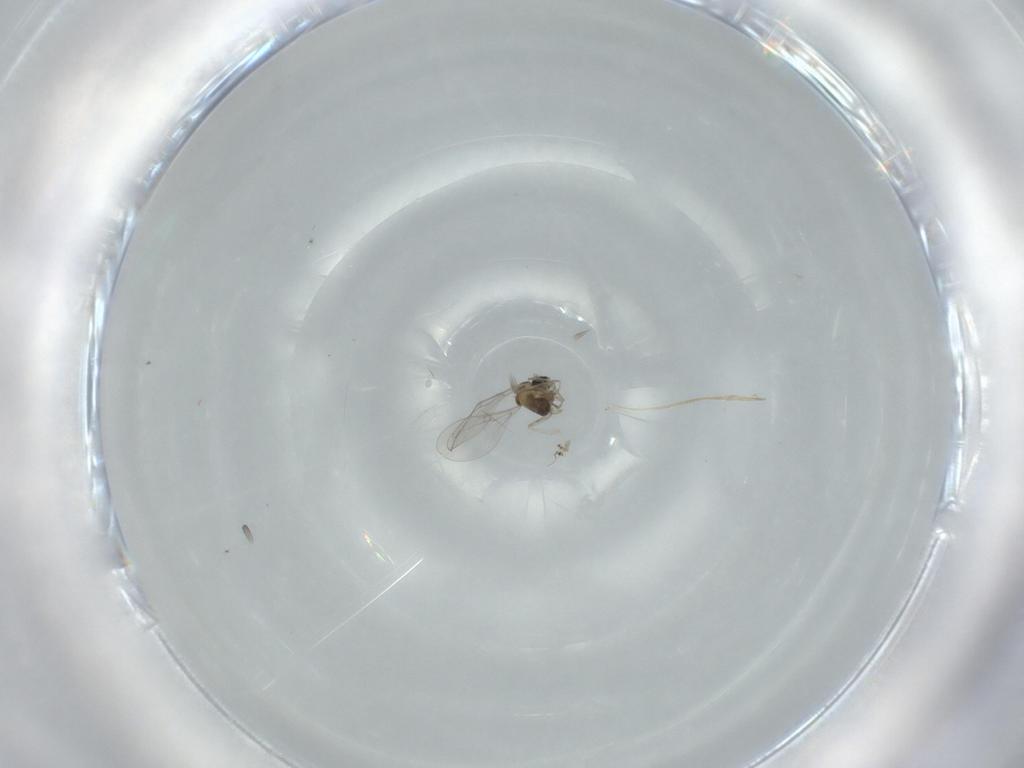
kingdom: Animalia
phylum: Arthropoda
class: Insecta
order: Diptera
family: Cecidomyiidae
